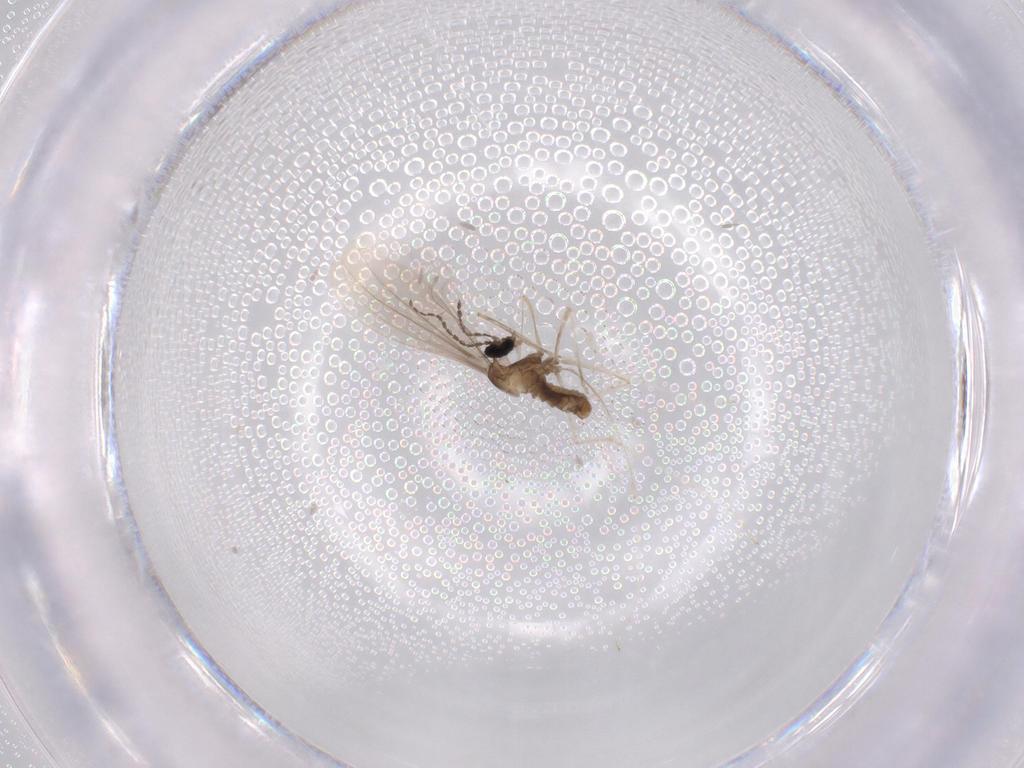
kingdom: Animalia
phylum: Arthropoda
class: Insecta
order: Diptera
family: Cecidomyiidae
